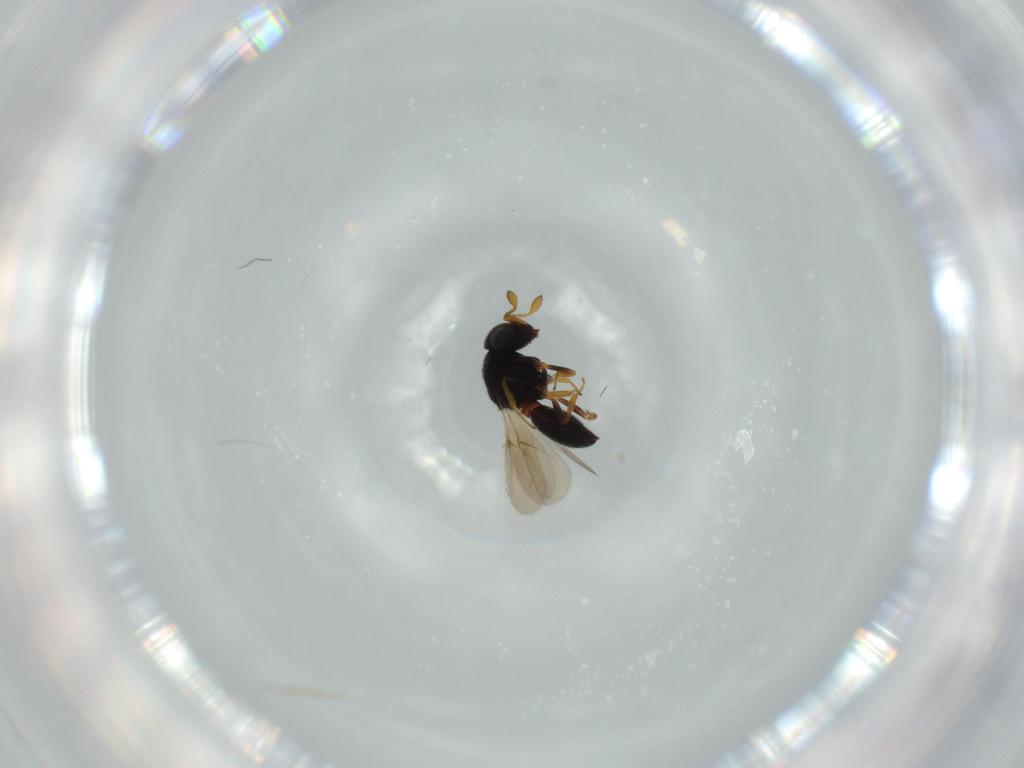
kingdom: Animalia
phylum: Arthropoda
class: Insecta
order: Hymenoptera
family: Scelionidae
